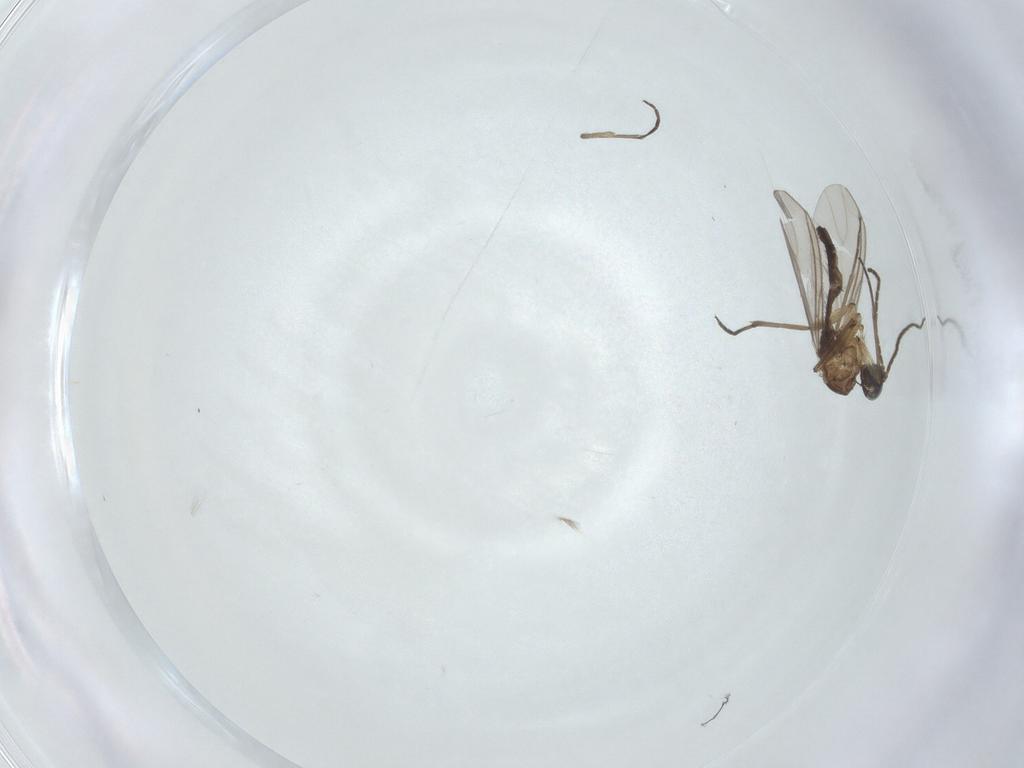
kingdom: Animalia
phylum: Arthropoda
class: Insecta
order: Diptera
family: Sciaridae
